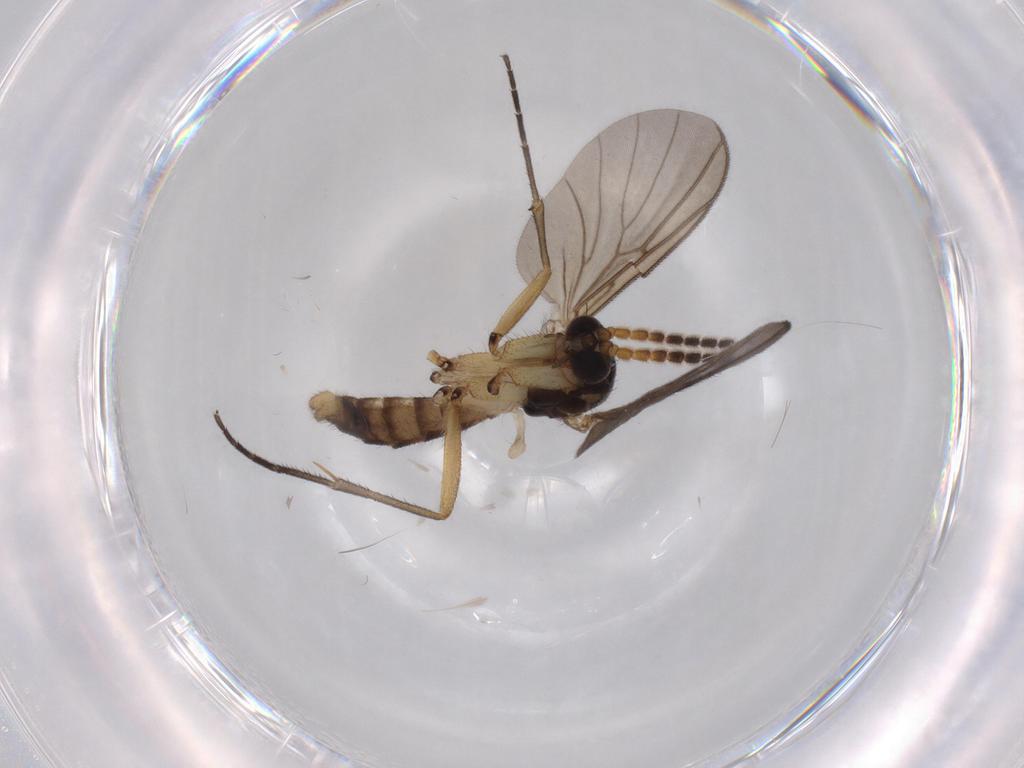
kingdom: Animalia
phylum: Arthropoda
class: Insecta
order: Diptera
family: Mycetophilidae
